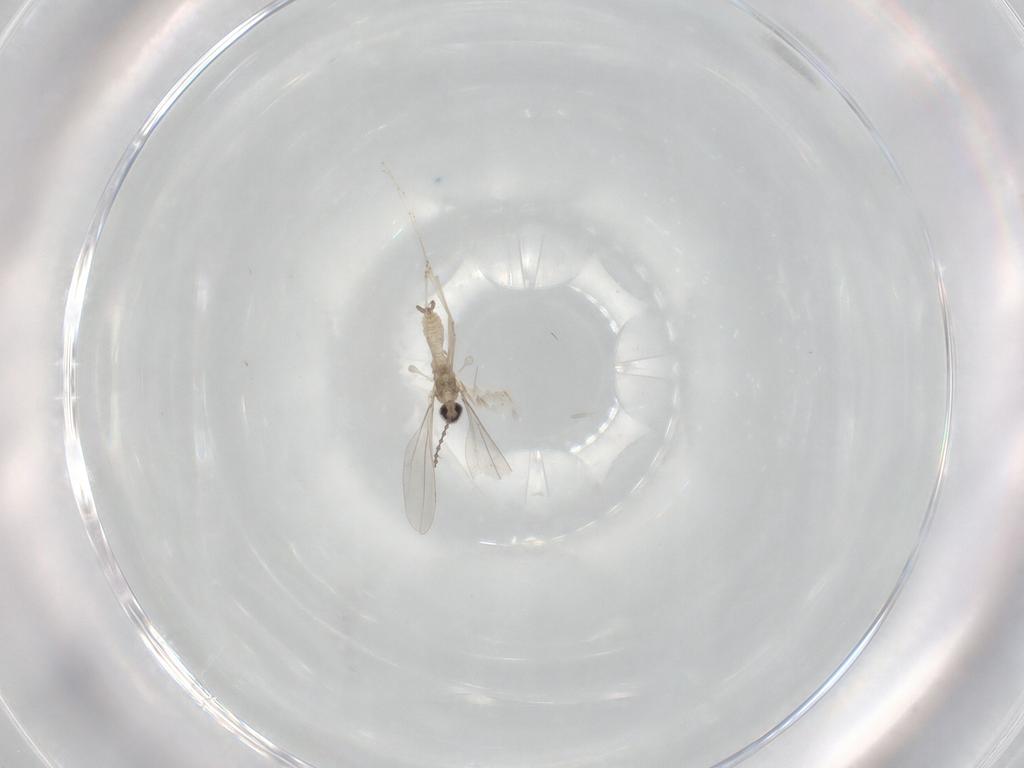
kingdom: Animalia
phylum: Arthropoda
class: Insecta
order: Diptera
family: Cecidomyiidae
